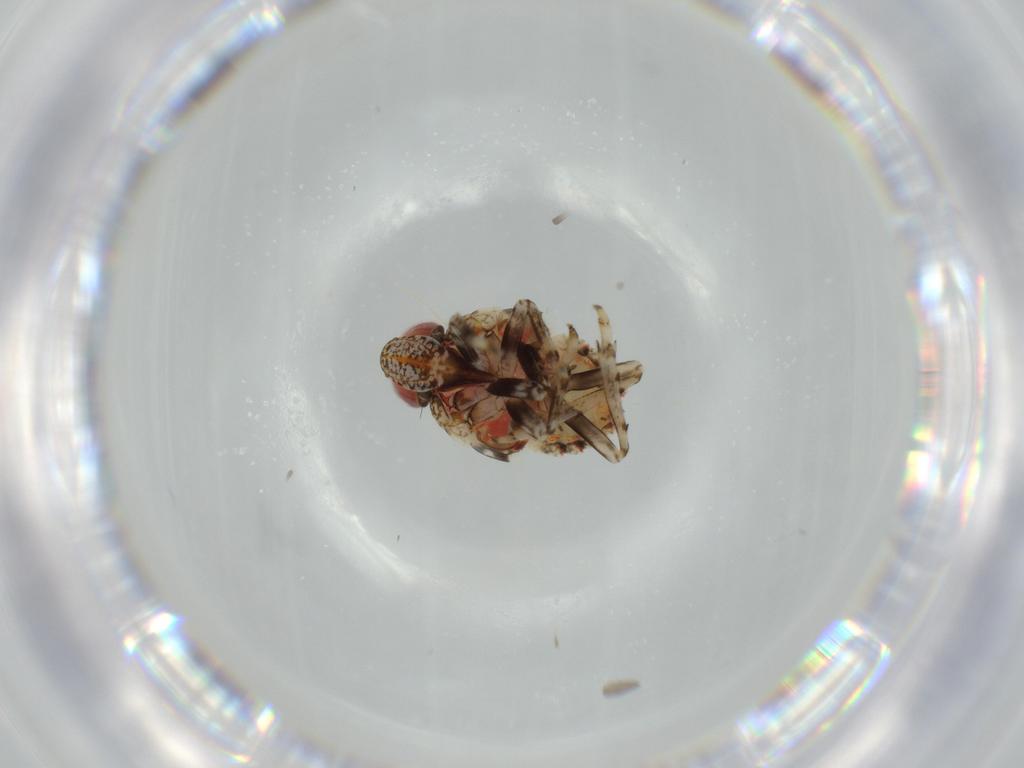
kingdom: Animalia
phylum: Arthropoda
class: Insecta
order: Hemiptera
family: Issidae
